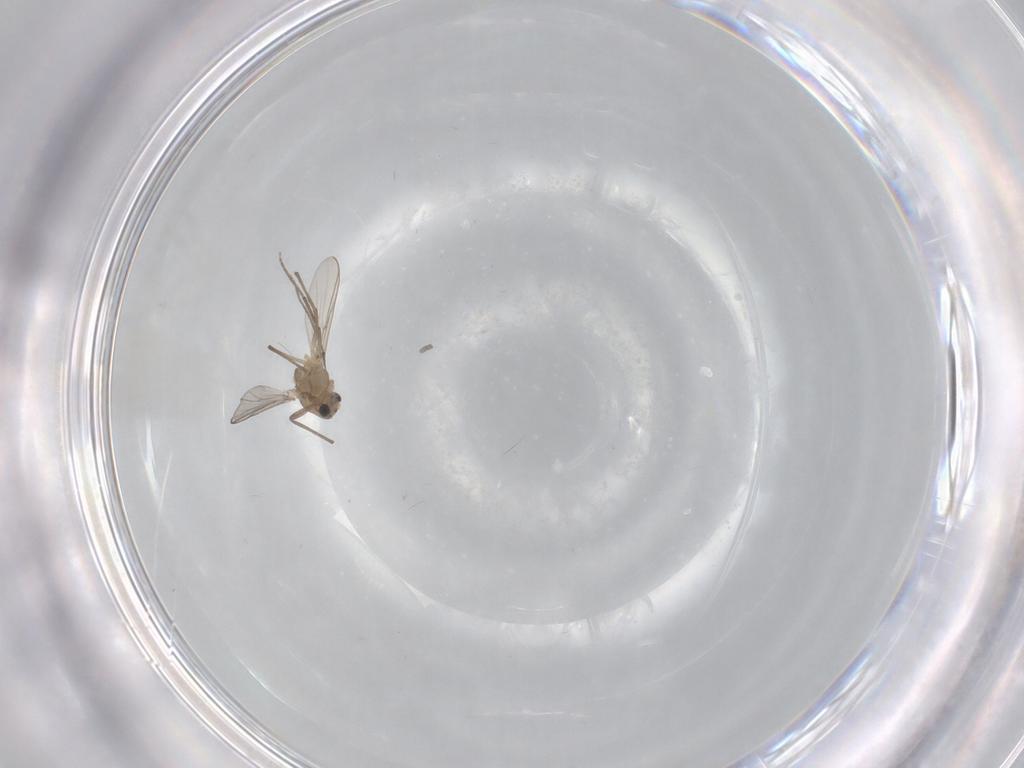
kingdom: Animalia
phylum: Arthropoda
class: Insecta
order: Diptera
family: Chironomidae
